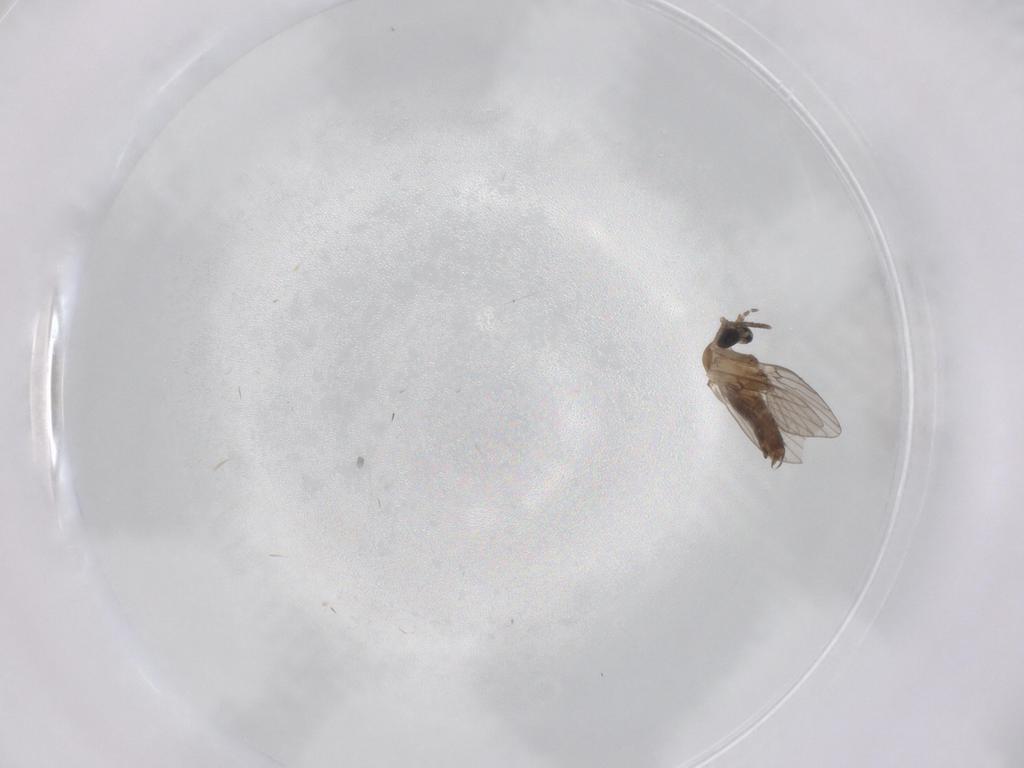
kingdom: Animalia
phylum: Arthropoda
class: Insecta
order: Diptera
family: Psychodidae
